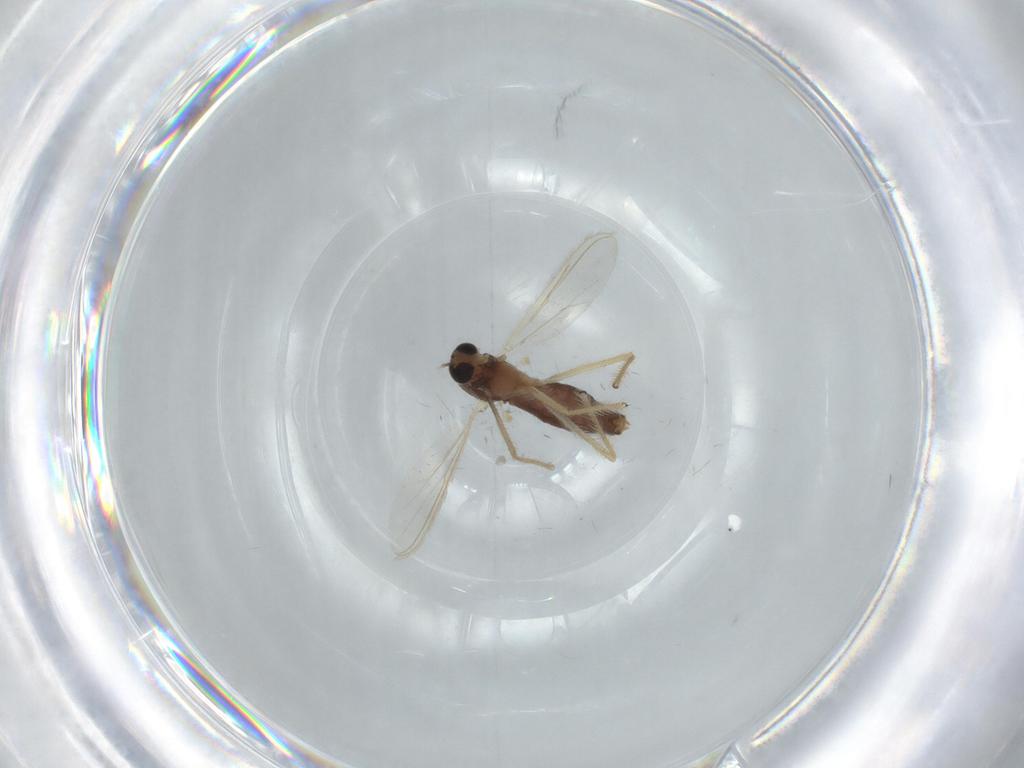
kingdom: Animalia
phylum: Arthropoda
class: Insecta
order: Diptera
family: Chironomidae
